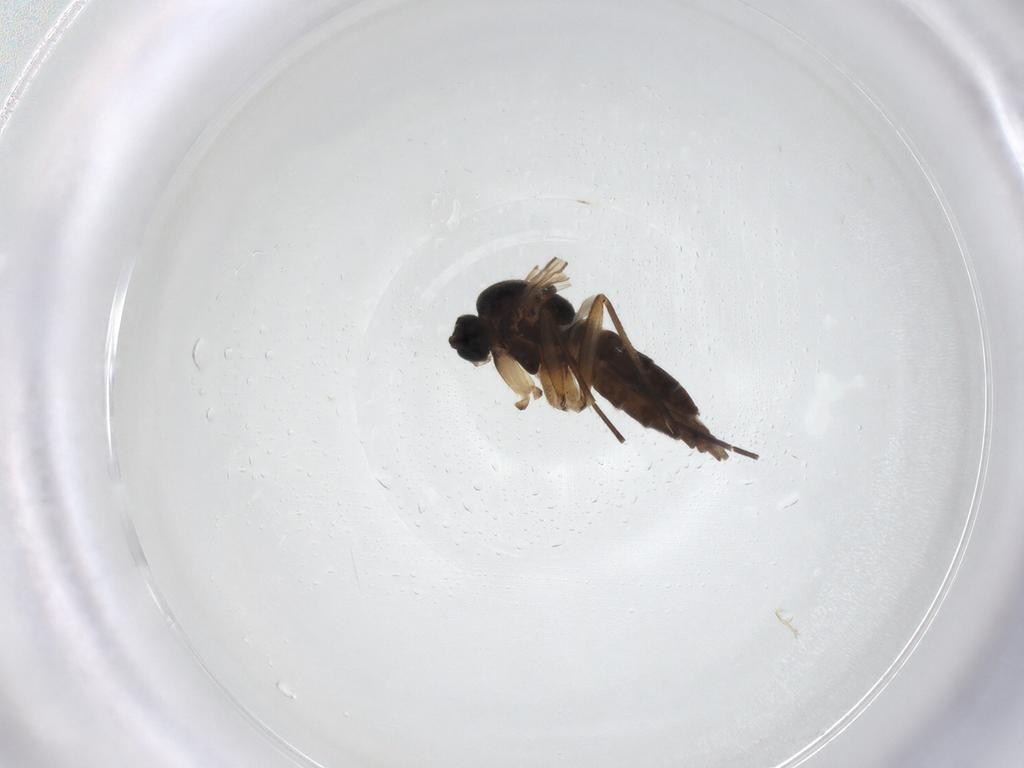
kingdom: Animalia
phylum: Arthropoda
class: Insecta
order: Diptera
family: Sciaridae
